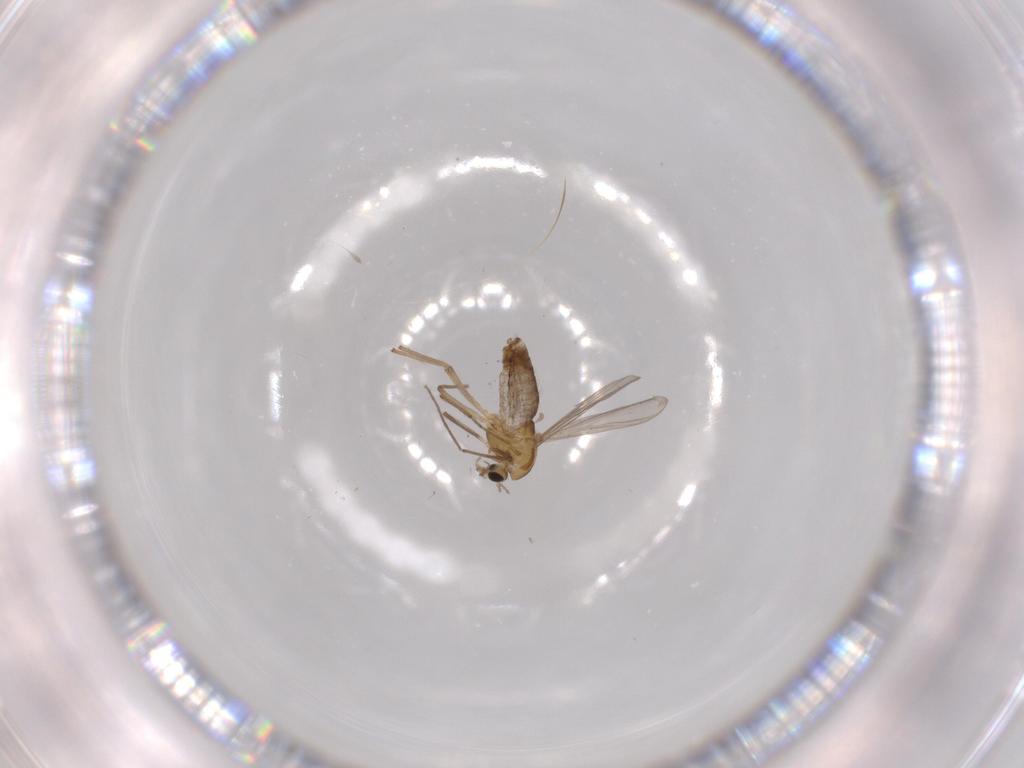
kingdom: Animalia
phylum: Arthropoda
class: Insecta
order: Diptera
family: Chironomidae
